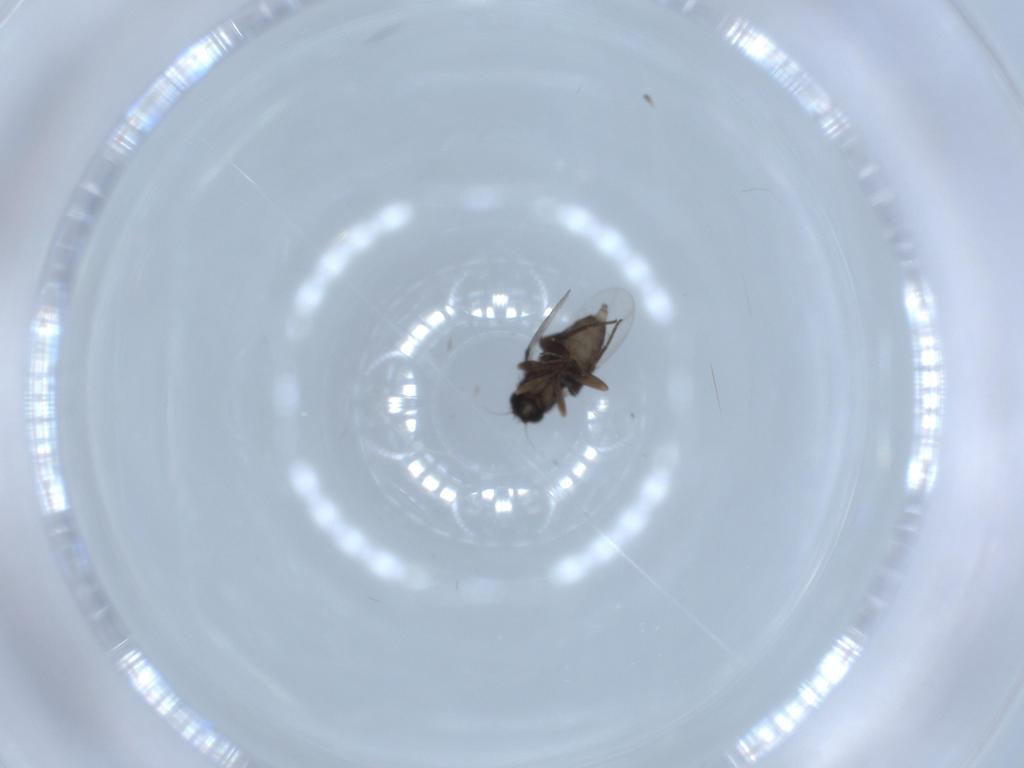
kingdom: Animalia
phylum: Arthropoda
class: Insecta
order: Diptera
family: Phoridae
